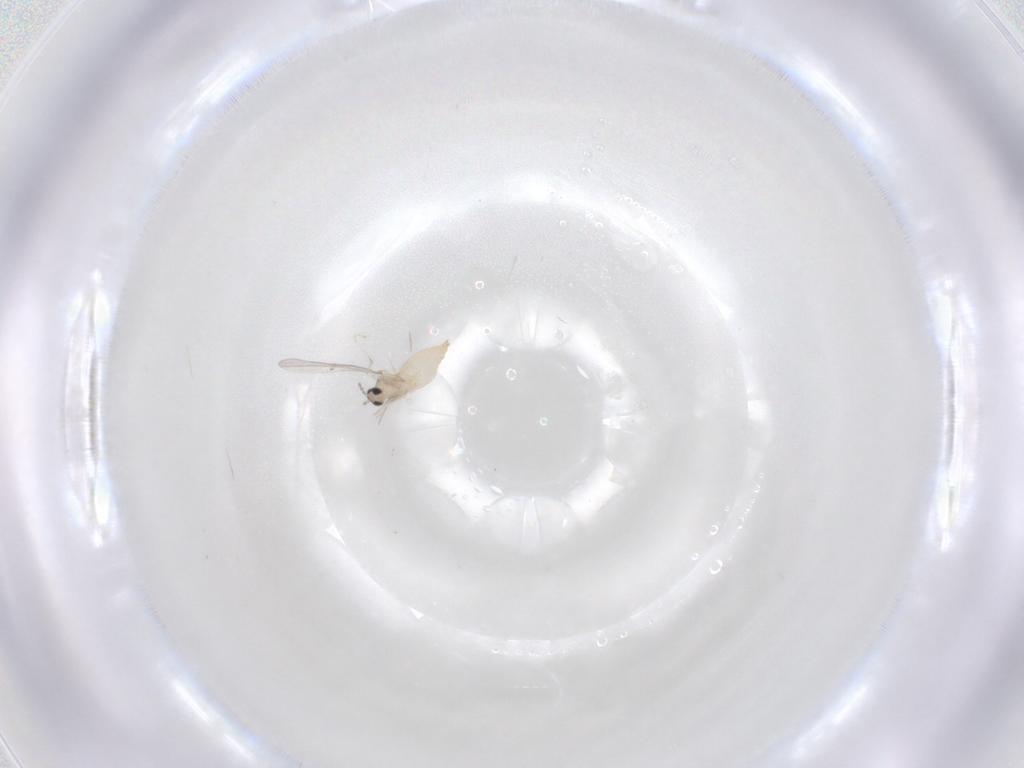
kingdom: Animalia
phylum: Arthropoda
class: Insecta
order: Diptera
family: Cecidomyiidae
